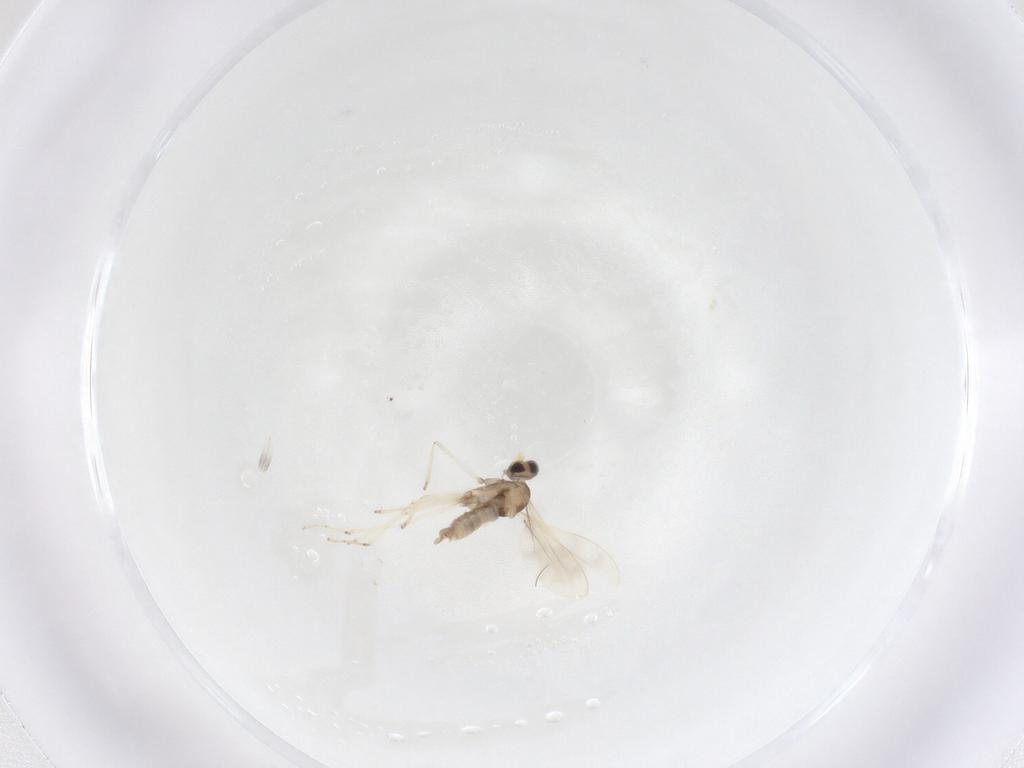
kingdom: Animalia
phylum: Arthropoda
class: Insecta
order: Diptera
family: Cecidomyiidae
